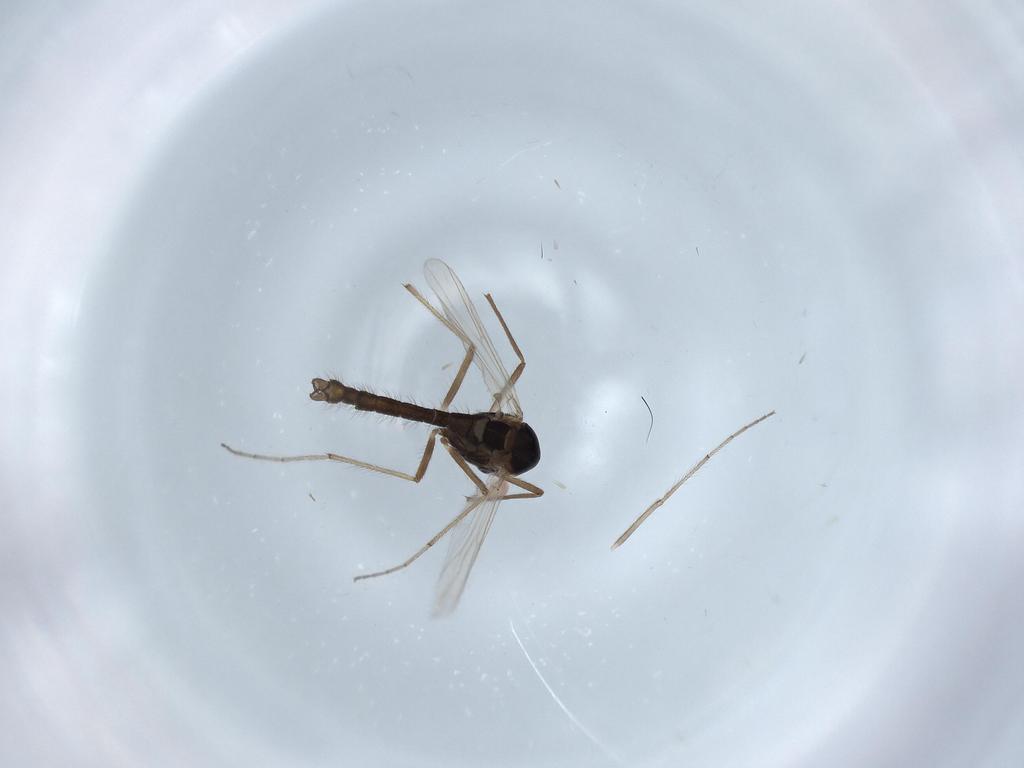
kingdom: Animalia
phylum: Arthropoda
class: Insecta
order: Diptera
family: Chironomidae
